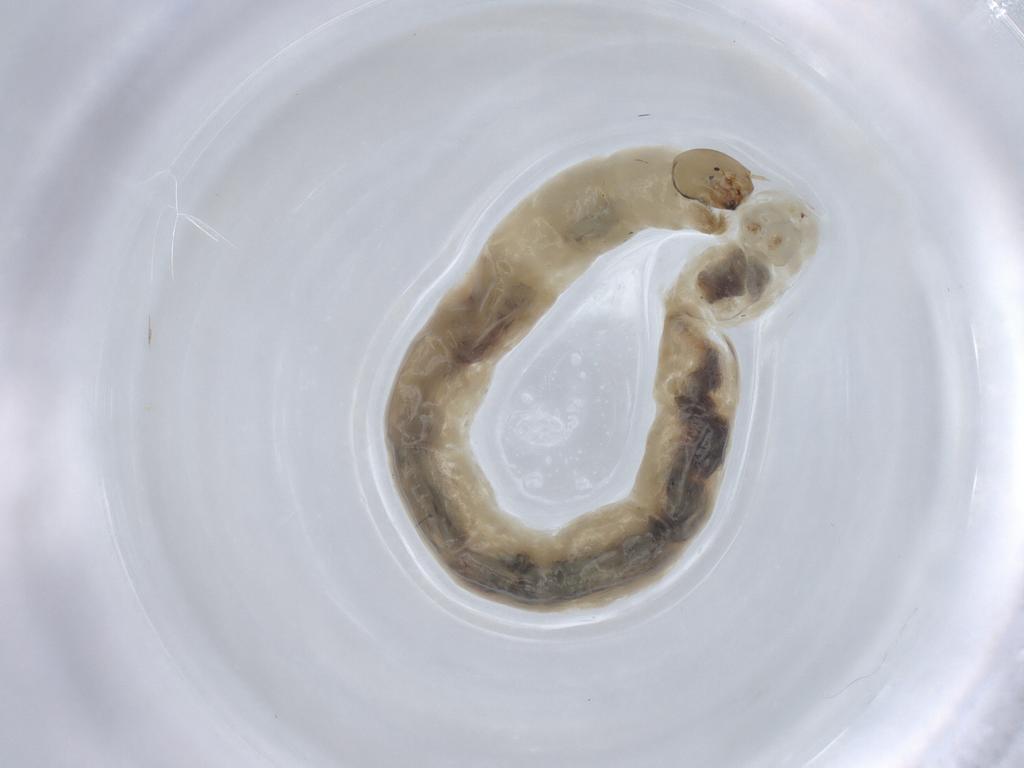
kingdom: Animalia
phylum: Arthropoda
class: Insecta
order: Diptera
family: Chironomidae
